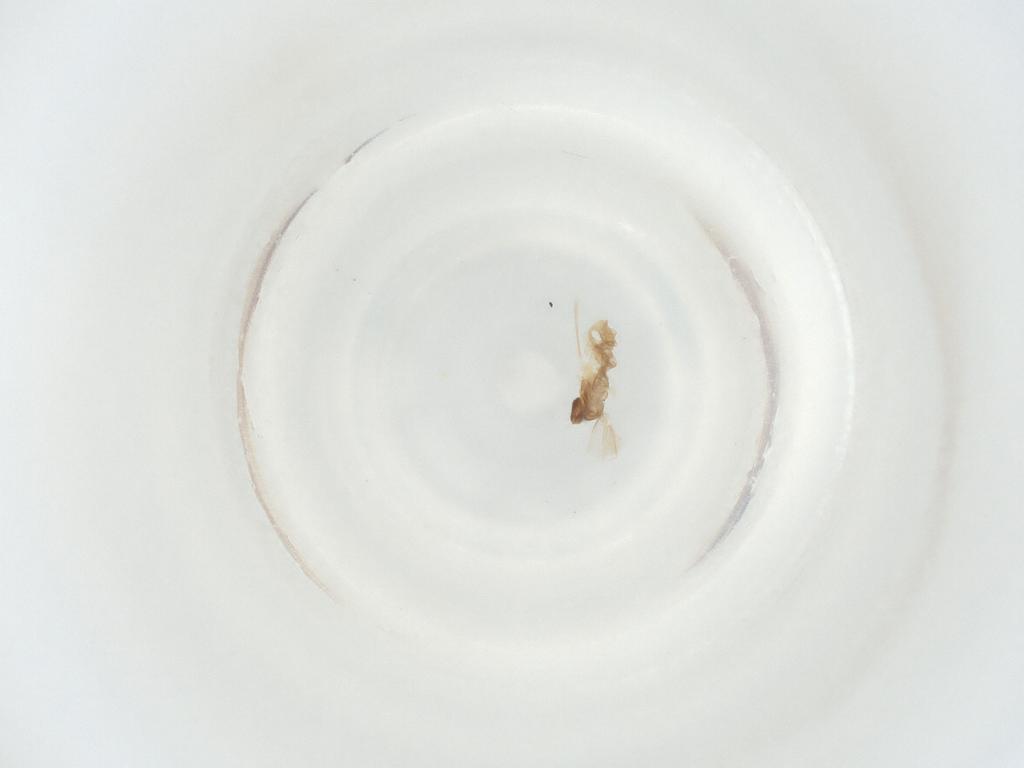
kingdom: Animalia
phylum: Arthropoda
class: Insecta
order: Diptera
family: Cecidomyiidae
